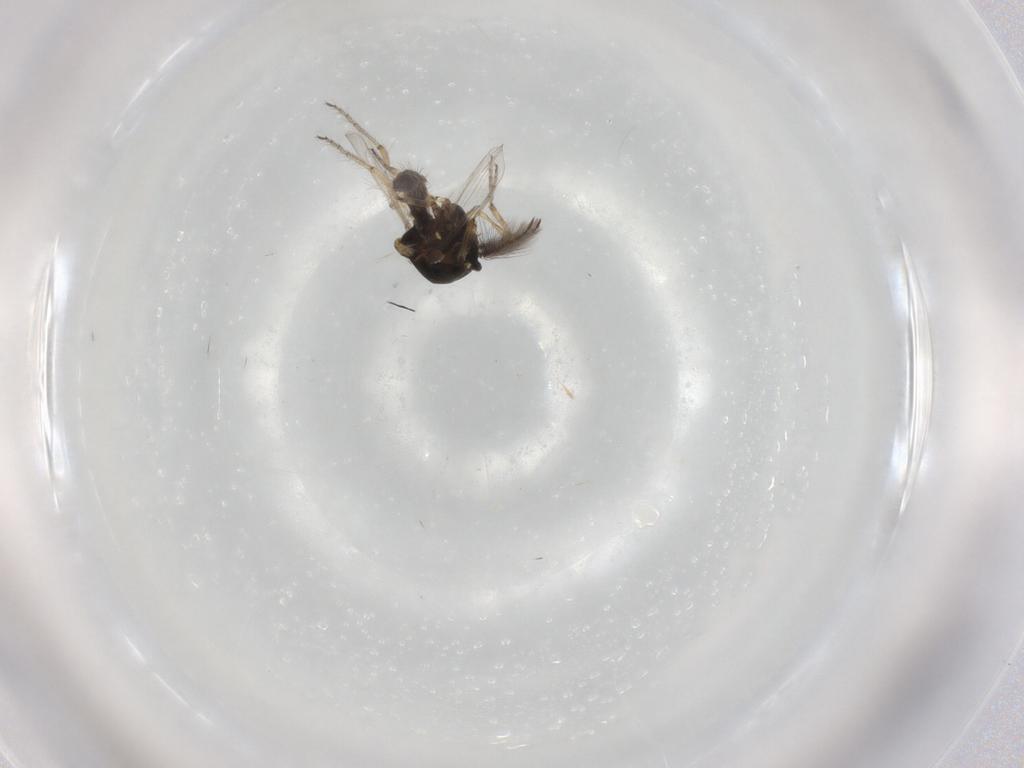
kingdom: Animalia
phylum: Arthropoda
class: Insecta
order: Diptera
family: Ceratopogonidae
